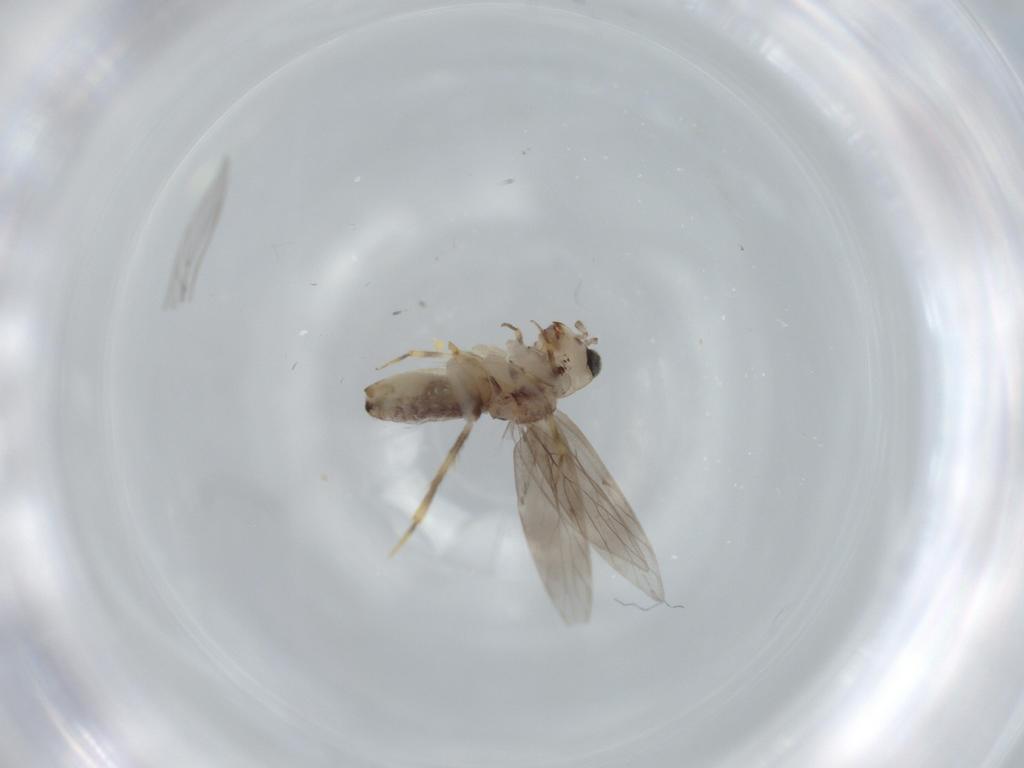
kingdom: Animalia
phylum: Arthropoda
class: Insecta
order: Psocodea
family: Lepidopsocidae
